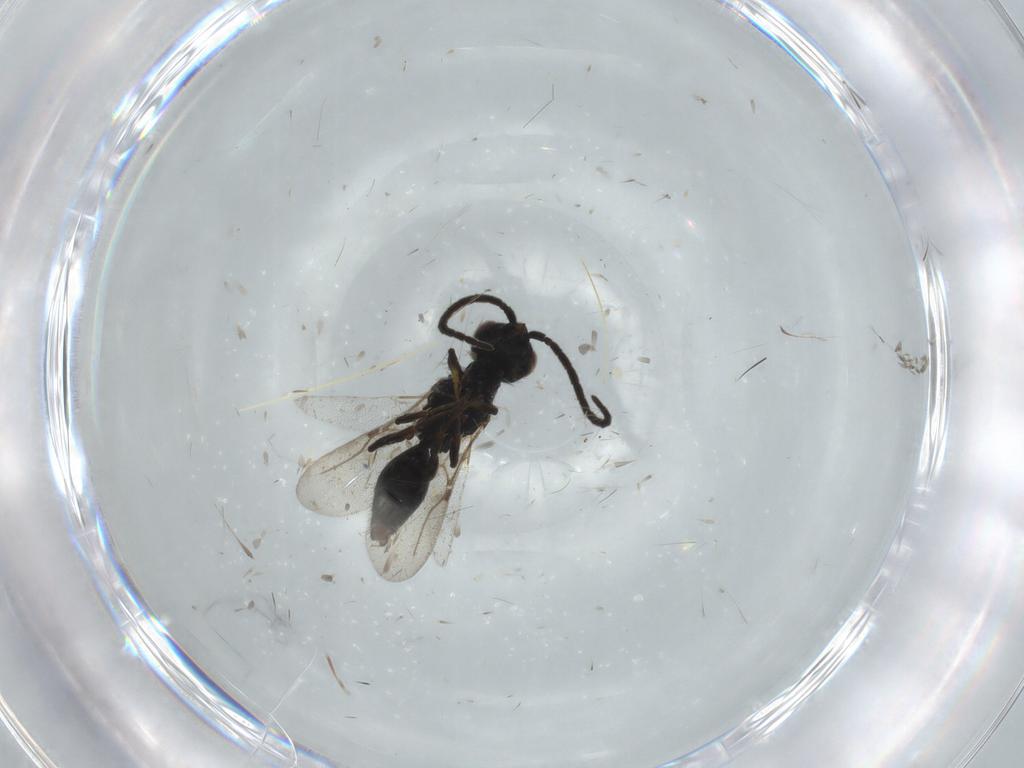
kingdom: Animalia
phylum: Arthropoda
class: Insecta
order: Hymenoptera
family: Bethylidae
